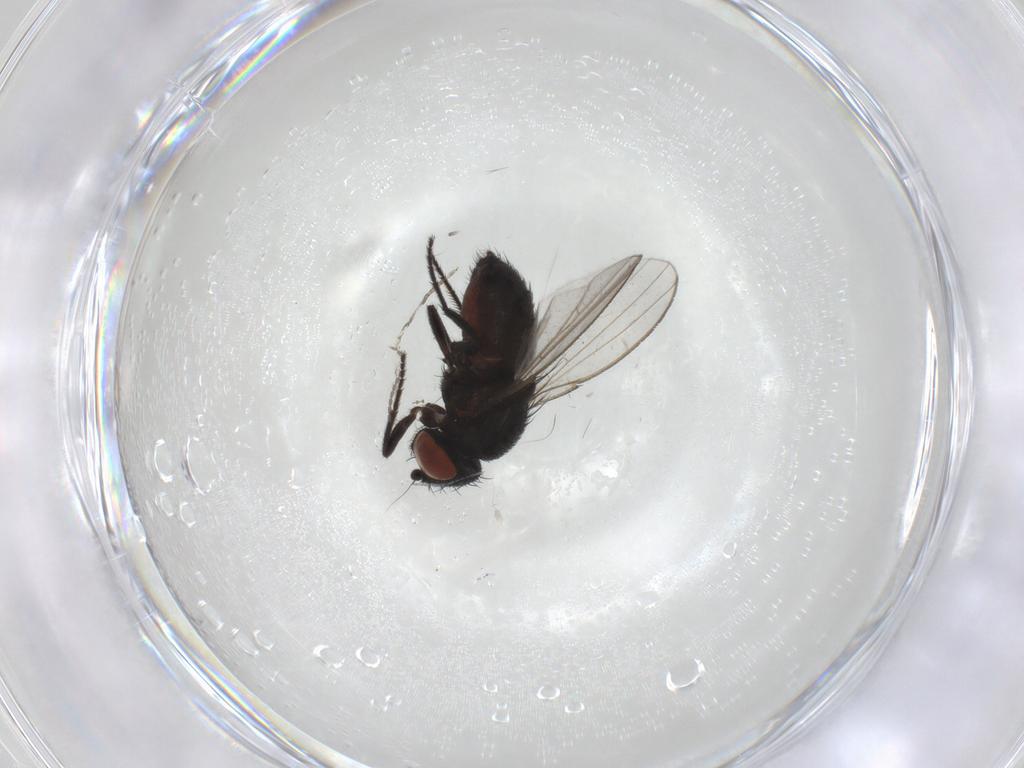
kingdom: Animalia
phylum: Arthropoda
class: Insecta
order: Diptera
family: Milichiidae
